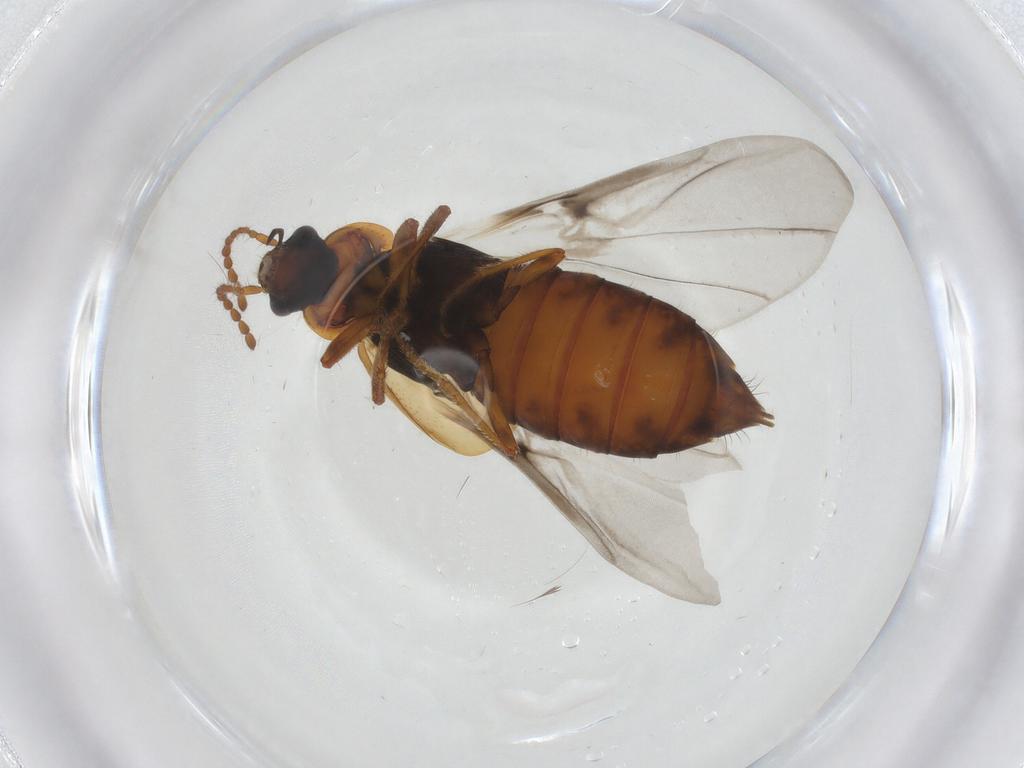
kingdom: Animalia
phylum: Arthropoda
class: Insecta
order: Coleoptera
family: Staphylinidae
